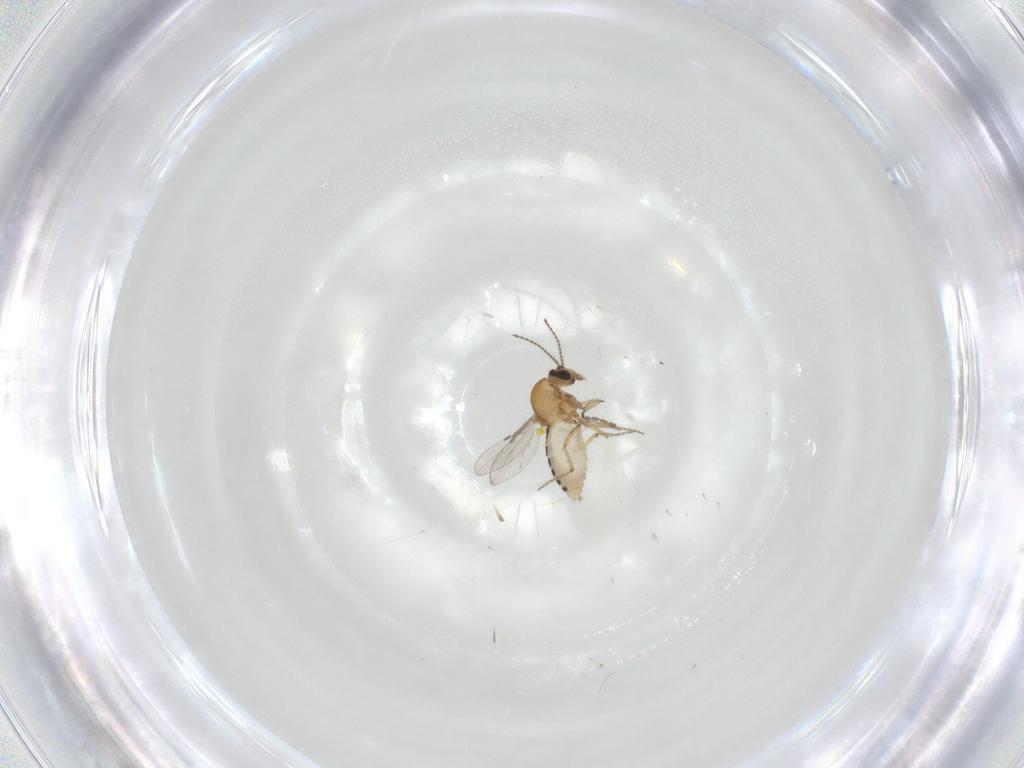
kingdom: Animalia
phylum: Arthropoda
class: Insecta
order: Diptera
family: Ceratopogonidae
